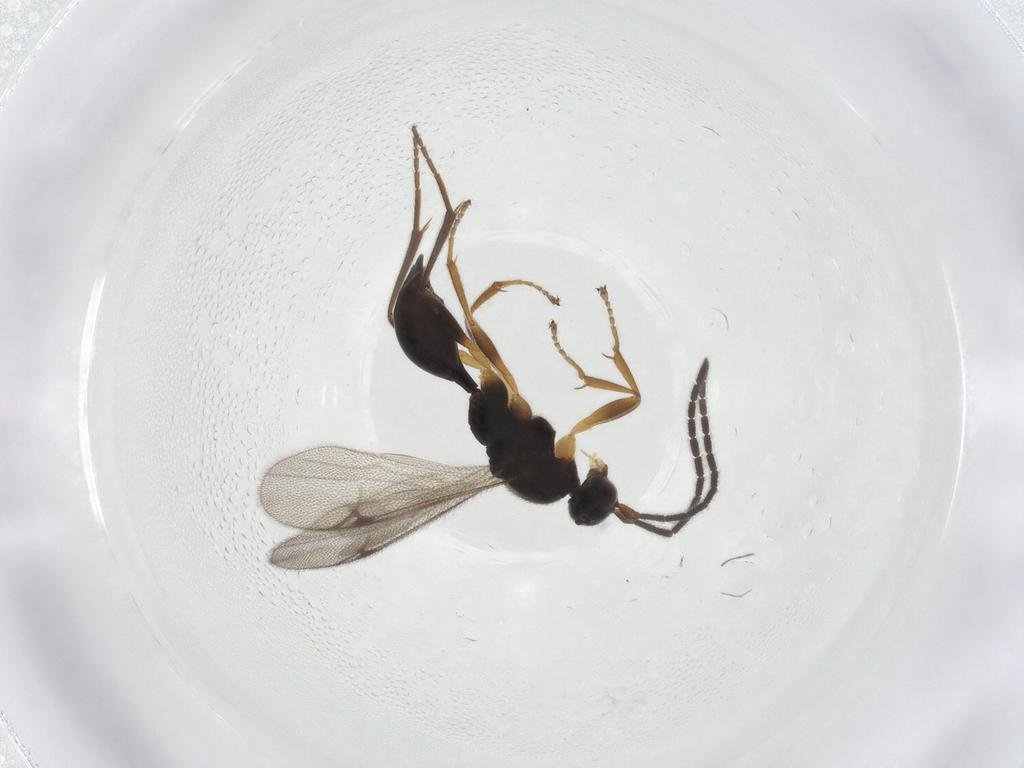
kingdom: Animalia
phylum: Arthropoda
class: Insecta
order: Hymenoptera
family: Proctotrupidae
